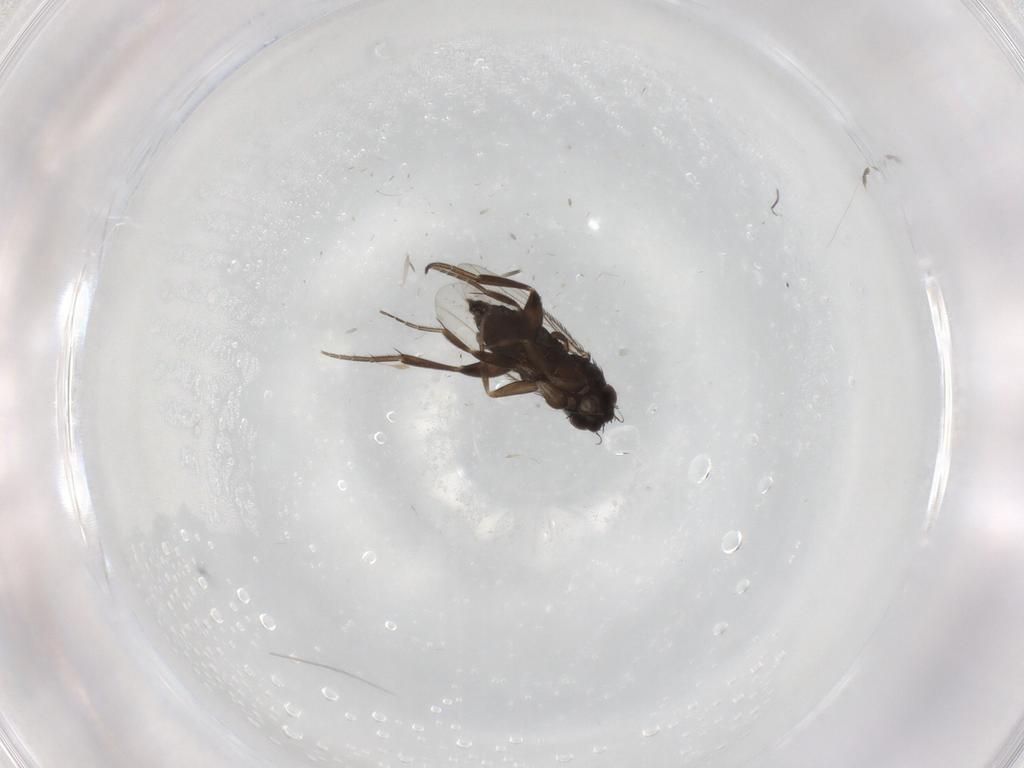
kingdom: Animalia
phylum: Arthropoda
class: Insecta
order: Diptera
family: Phoridae
